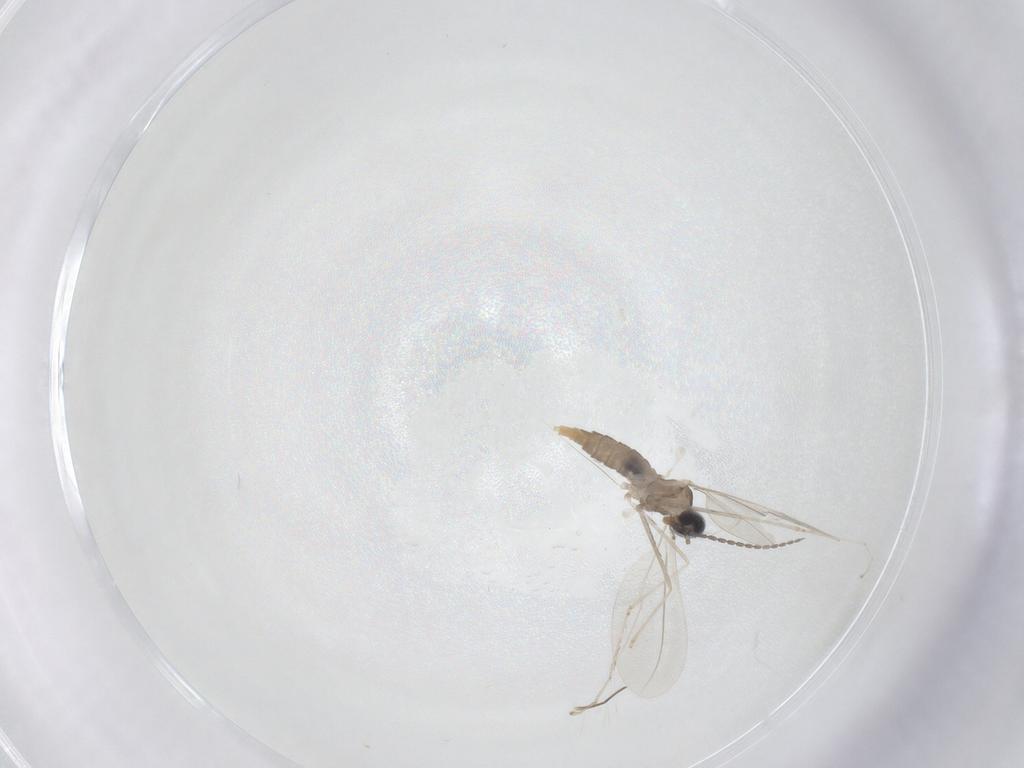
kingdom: Animalia
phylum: Arthropoda
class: Insecta
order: Diptera
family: Cecidomyiidae
